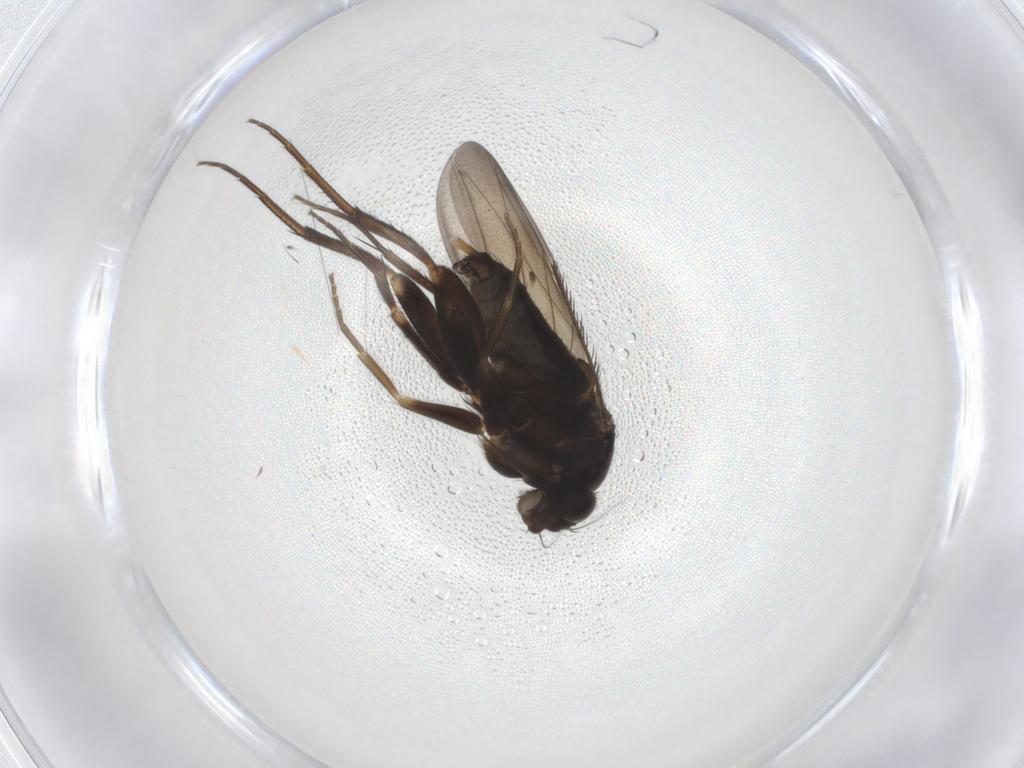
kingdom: Animalia
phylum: Arthropoda
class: Insecta
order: Diptera
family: Phoridae
